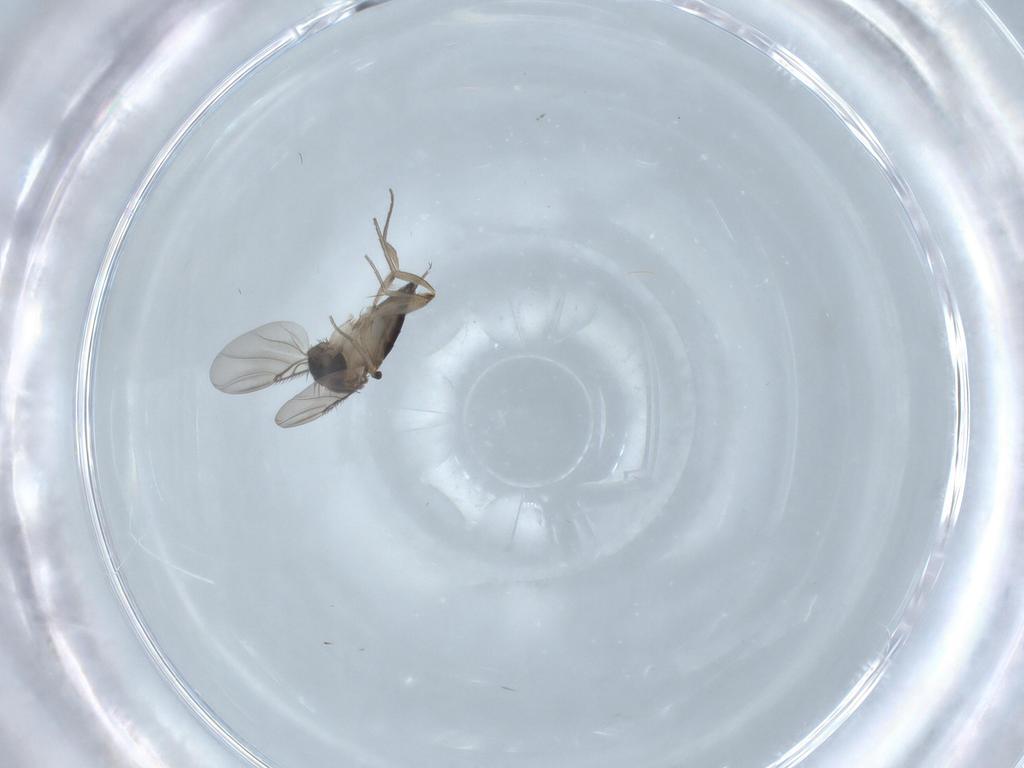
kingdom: Animalia
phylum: Arthropoda
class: Insecta
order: Diptera
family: Phoridae
